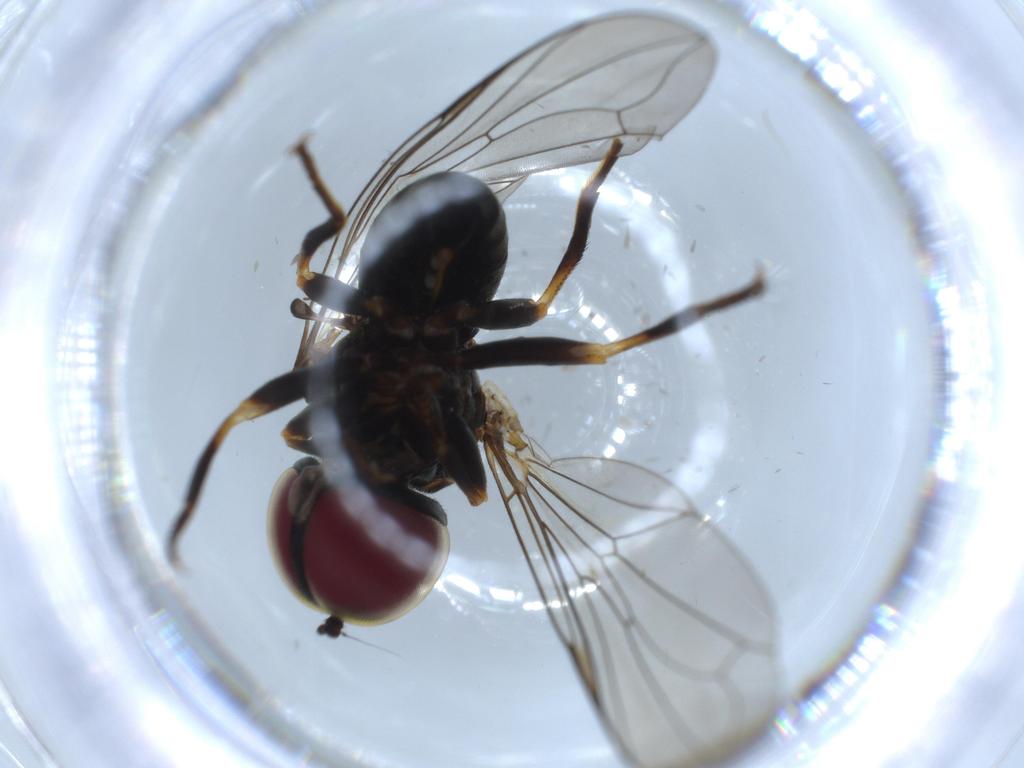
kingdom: Animalia
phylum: Arthropoda
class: Insecta
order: Diptera
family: Pipunculidae
